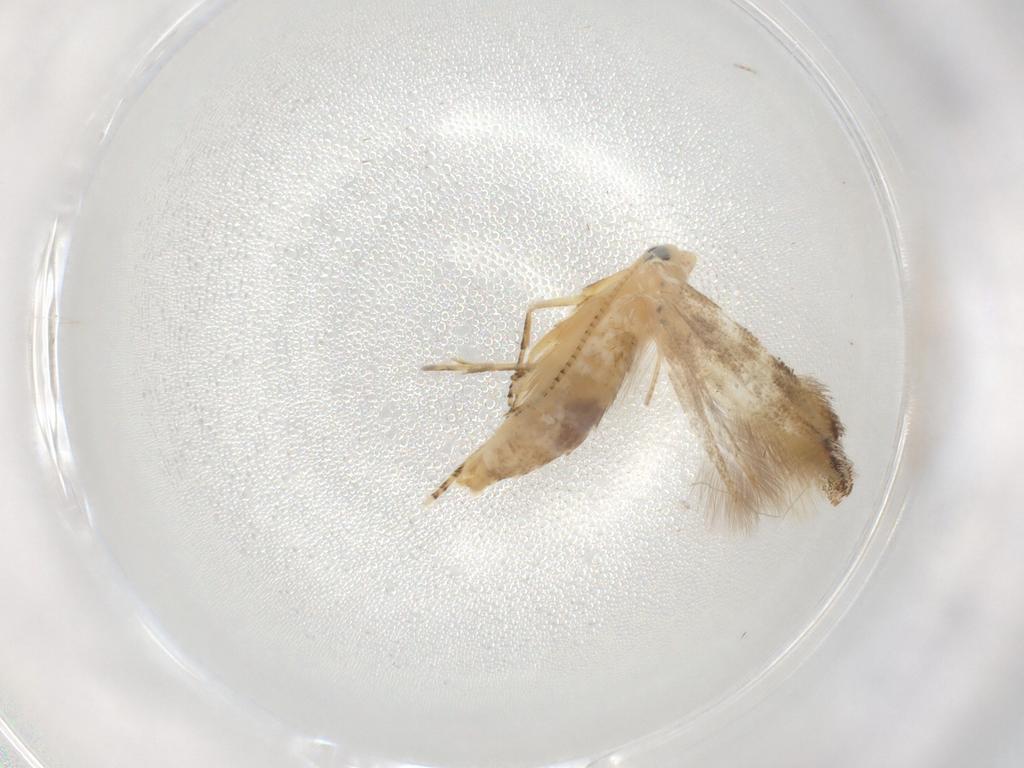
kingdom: Animalia
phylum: Arthropoda
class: Insecta
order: Lepidoptera
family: Bucculatricidae
